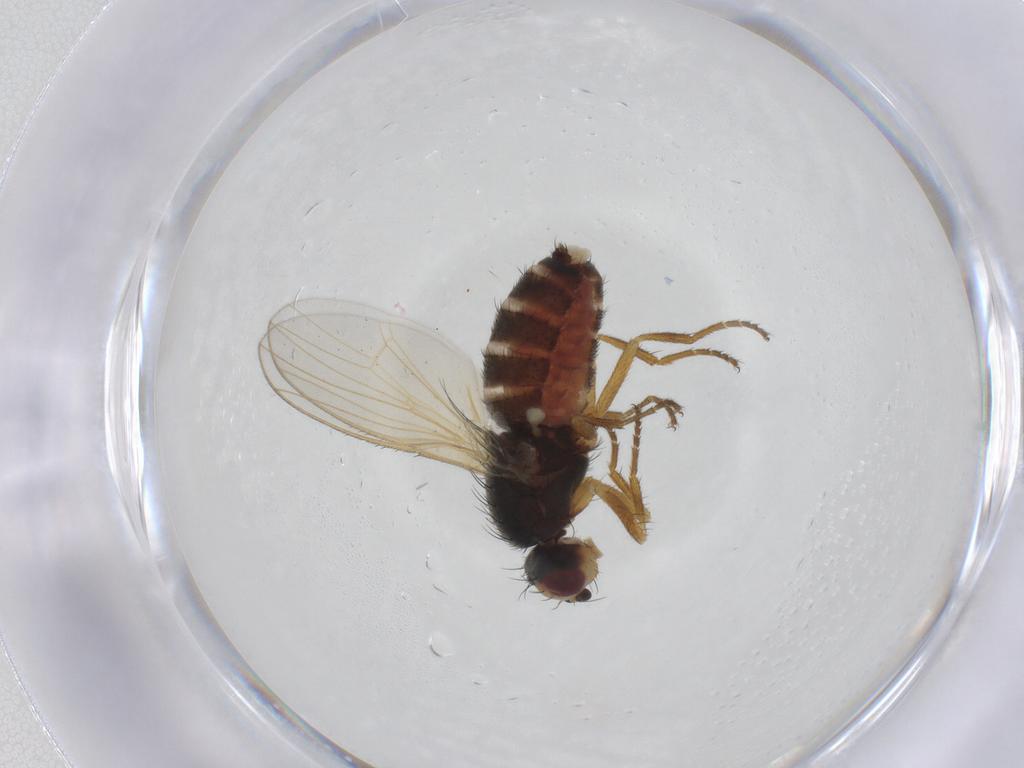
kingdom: Animalia
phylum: Arthropoda
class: Insecta
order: Diptera
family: Heleomyzidae
